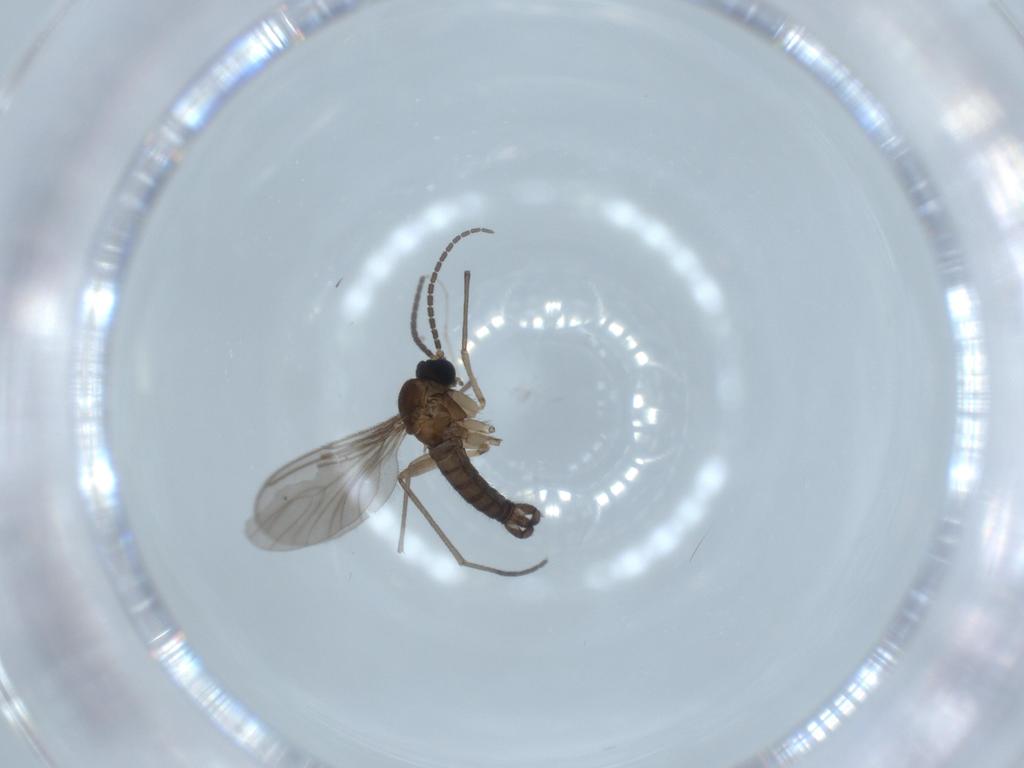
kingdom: Animalia
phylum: Arthropoda
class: Insecta
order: Diptera
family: Sciaridae
